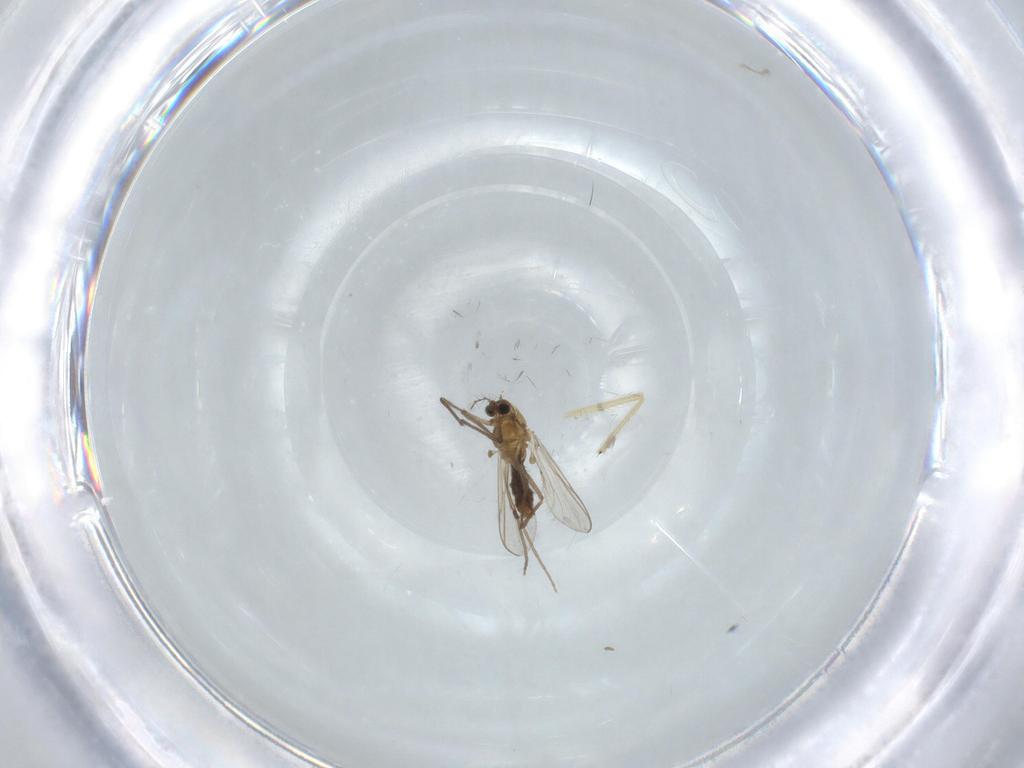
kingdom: Animalia
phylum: Arthropoda
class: Insecta
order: Diptera
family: Chironomidae
